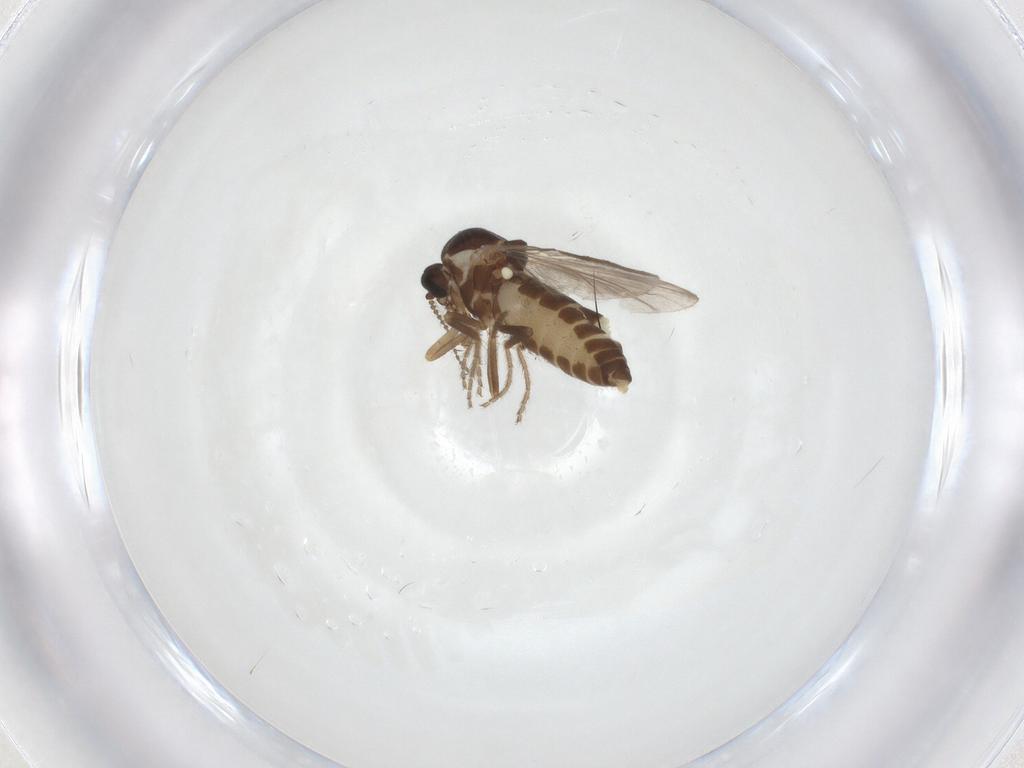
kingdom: Animalia
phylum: Arthropoda
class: Insecta
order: Diptera
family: Ceratopogonidae
